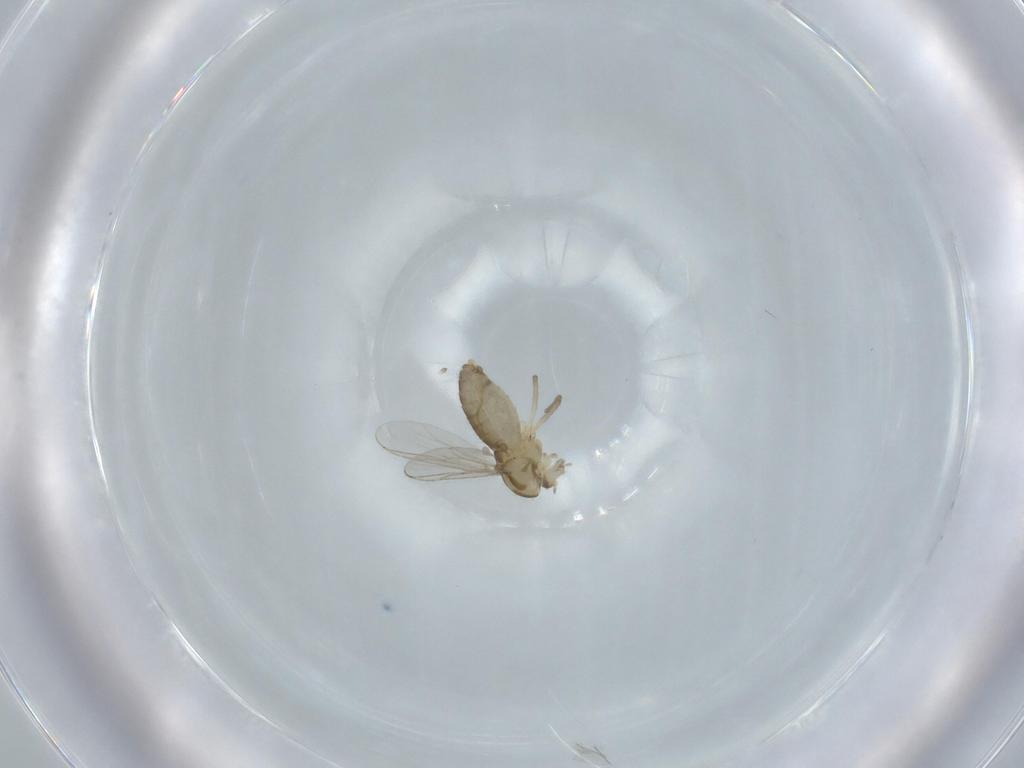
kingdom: Animalia
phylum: Arthropoda
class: Insecta
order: Diptera
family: Chironomidae
